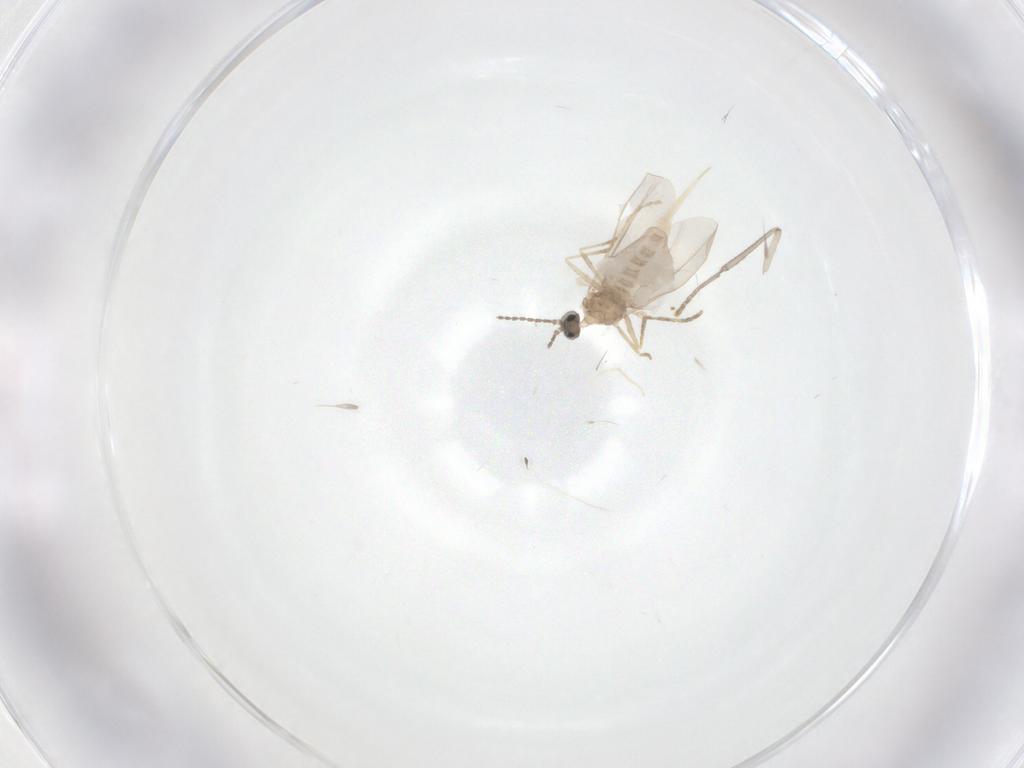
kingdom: Animalia
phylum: Arthropoda
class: Insecta
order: Diptera
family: Cecidomyiidae
